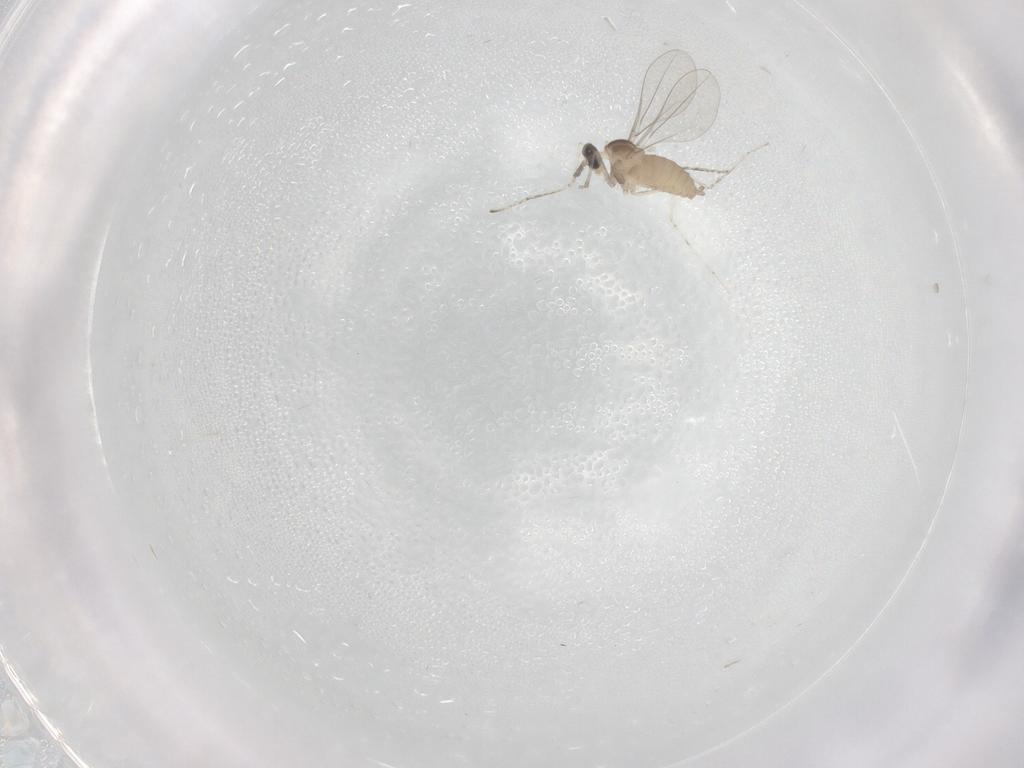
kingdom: Animalia
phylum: Arthropoda
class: Insecta
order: Diptera
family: Cecidomyiidae
